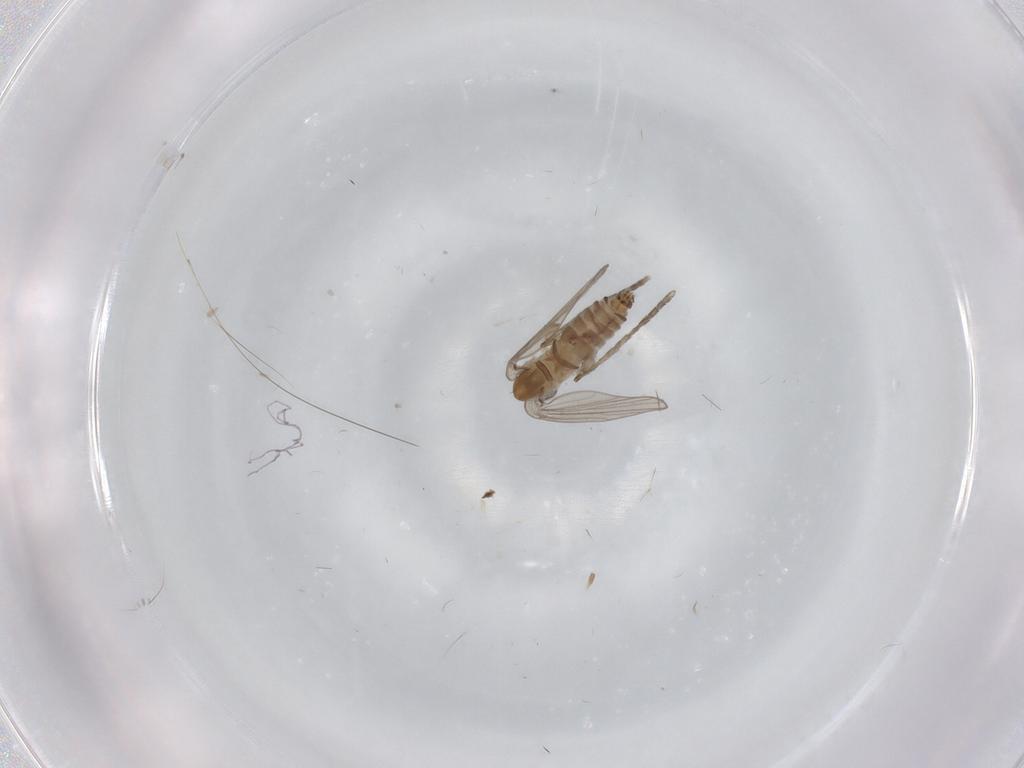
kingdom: Animalia
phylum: Arthropoda
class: Insecta
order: Diptera
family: Psychodidae
